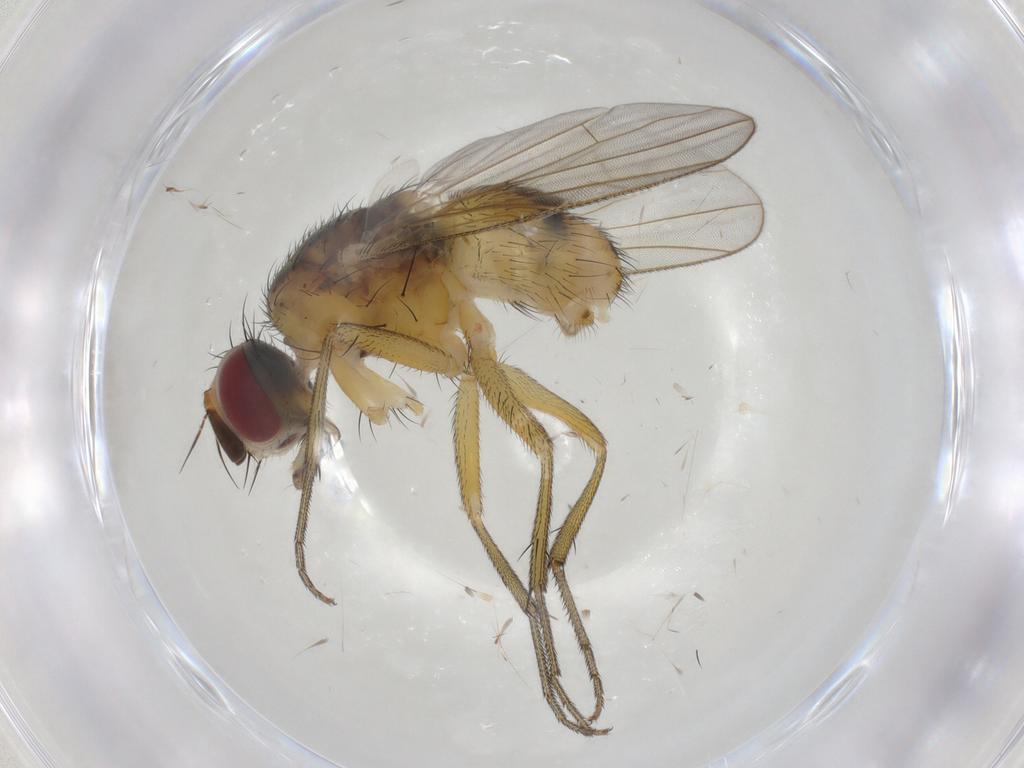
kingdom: Animalia
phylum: Arthropoda
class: Insecta
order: Diptera
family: Muscidae
